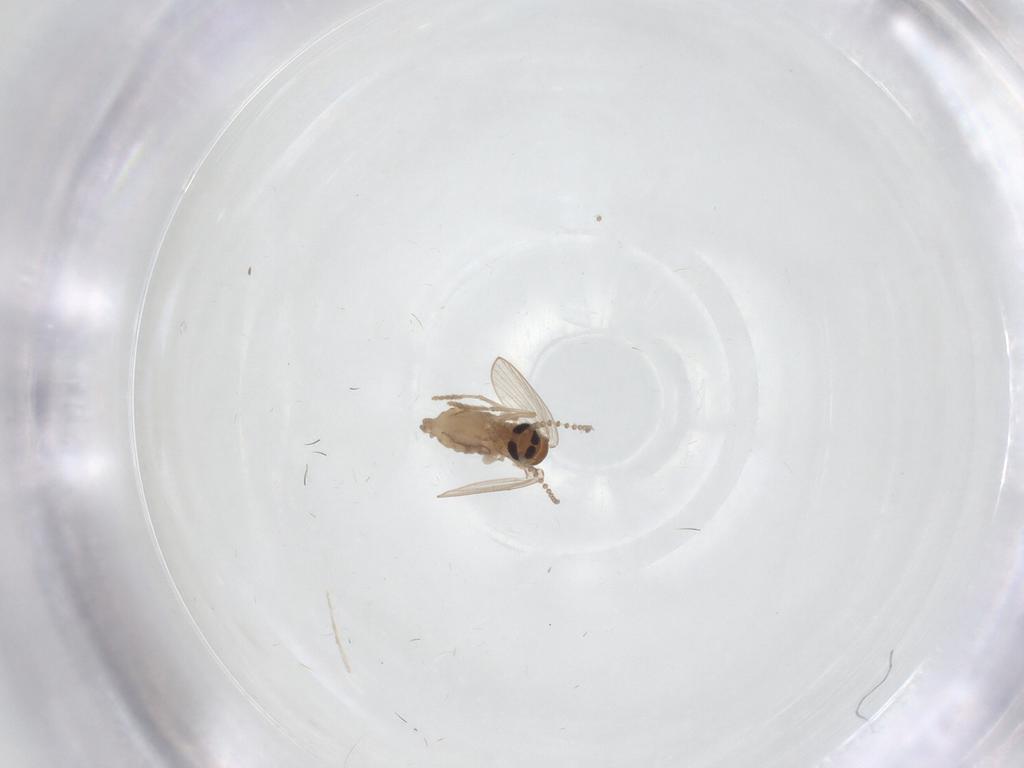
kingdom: Animalia
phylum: Arthropoda
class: Insecta
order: Diptera
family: Psychodidae
